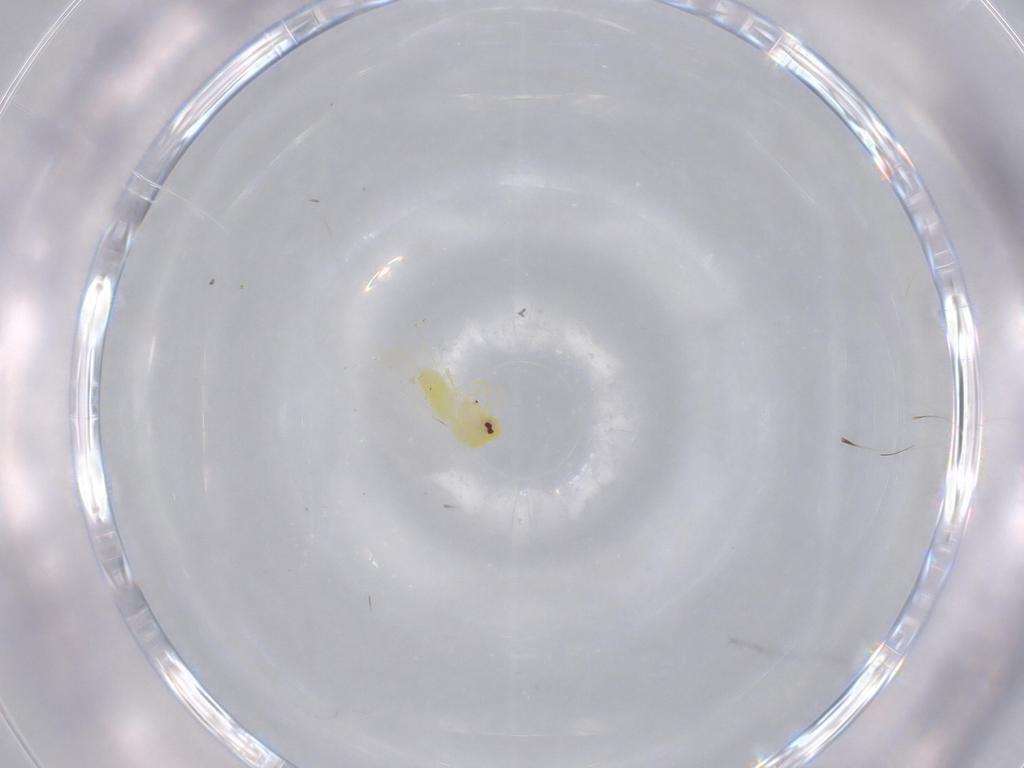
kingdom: Animalia
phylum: Arthropoda
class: Insecta
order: Hemiptera
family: Aleyrodidae
